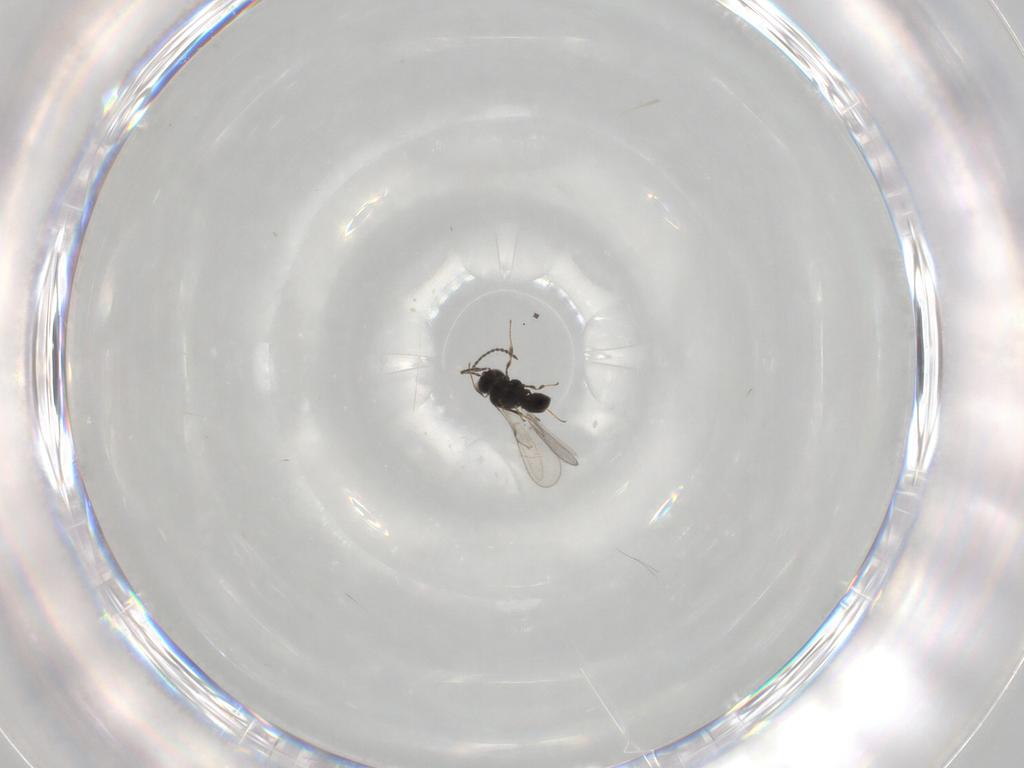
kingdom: Animalia
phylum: Arthropoda
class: Insecta
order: Hymenoptera
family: Scelionidae
